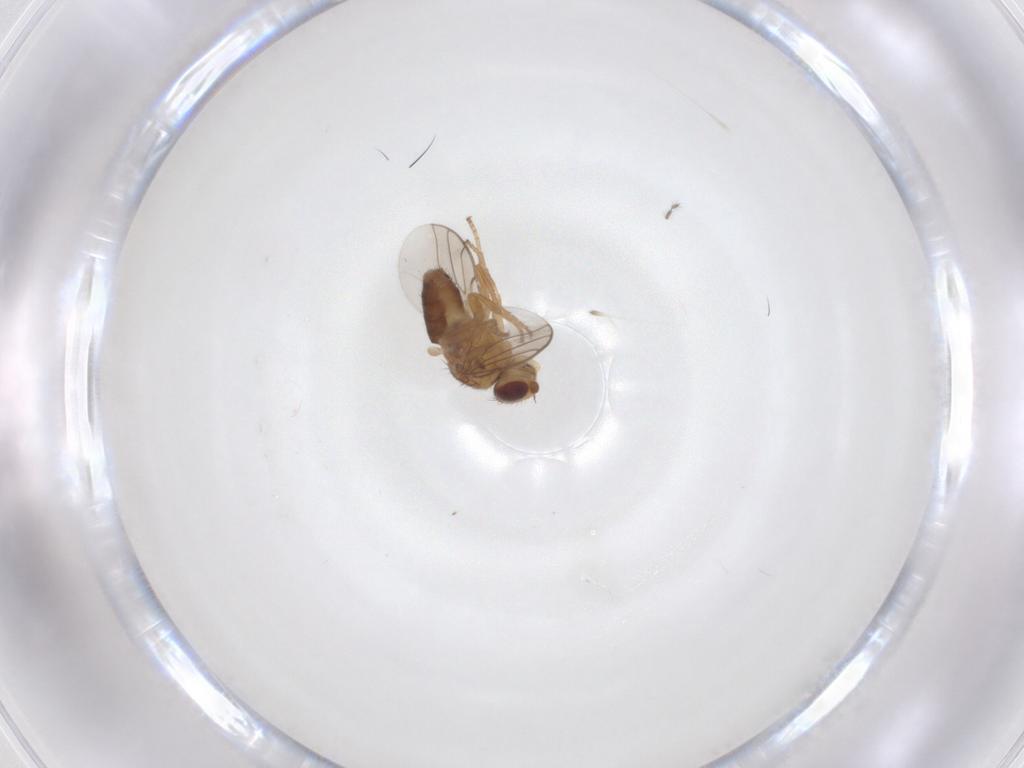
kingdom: Animalia
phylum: Arthropoda
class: Insecta
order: Diptera
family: Chloropidae
